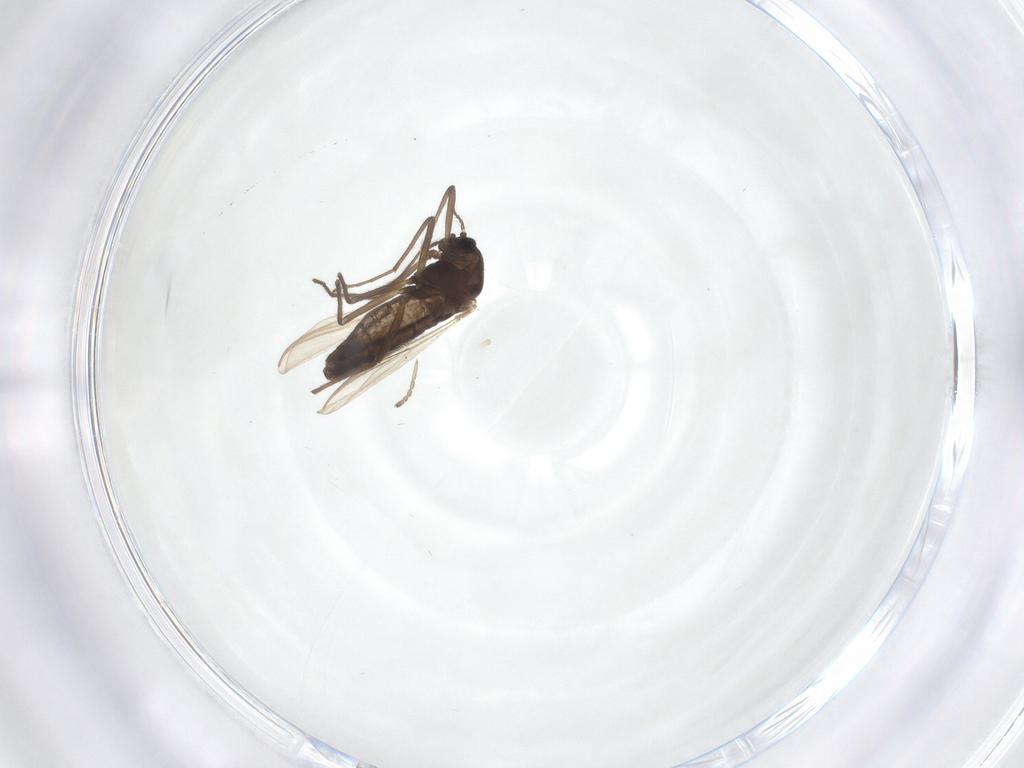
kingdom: Animalia
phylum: Arthropoda
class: Insecta
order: Diptera
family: Cecidomyiidae
